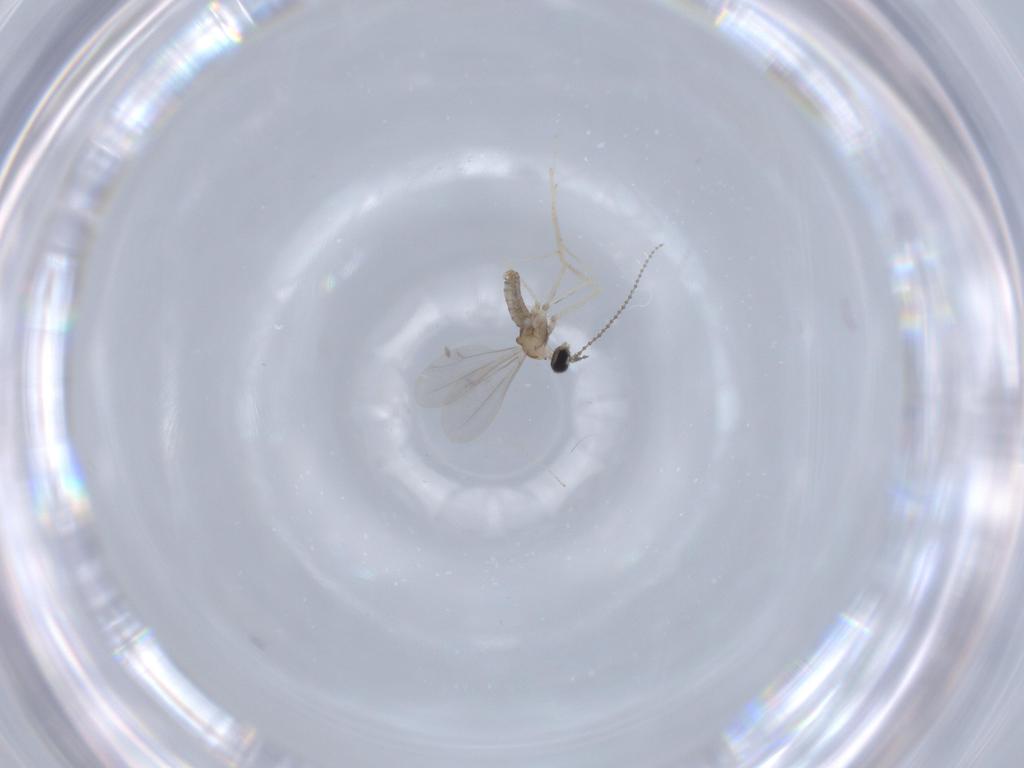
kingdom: Animalia
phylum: Arthropoda
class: Insecta
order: Diptera
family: Cecidomyiidae
